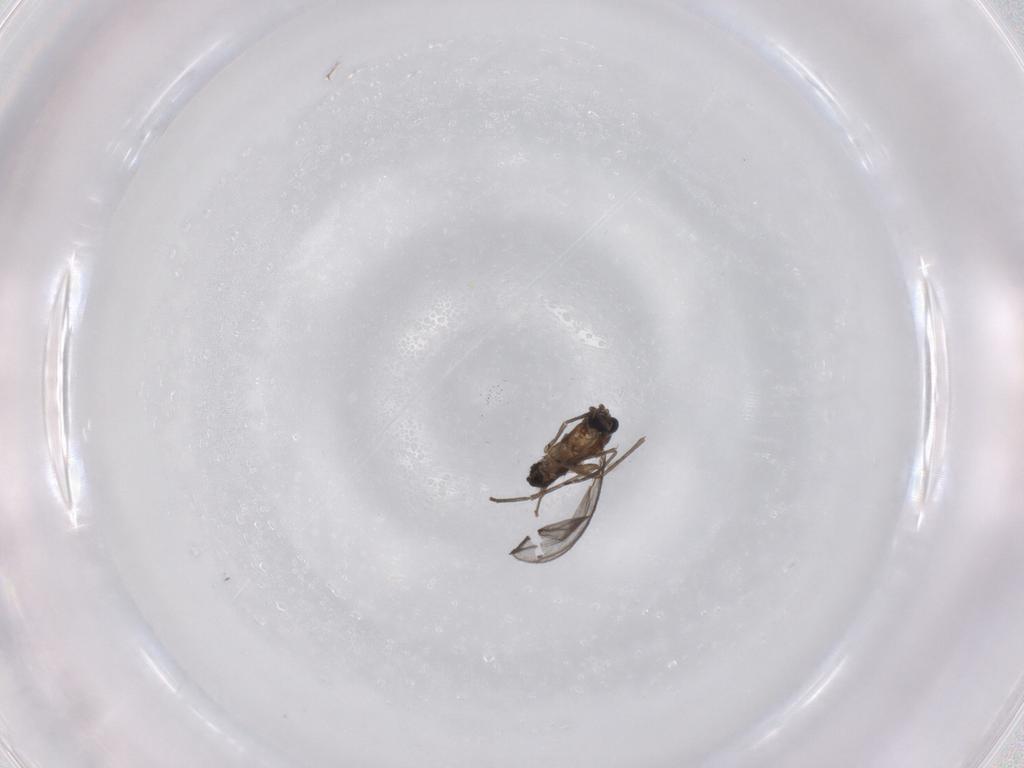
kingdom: Animalia
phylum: Arthropoda
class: Insecta
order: Diptera
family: Sciaridae
